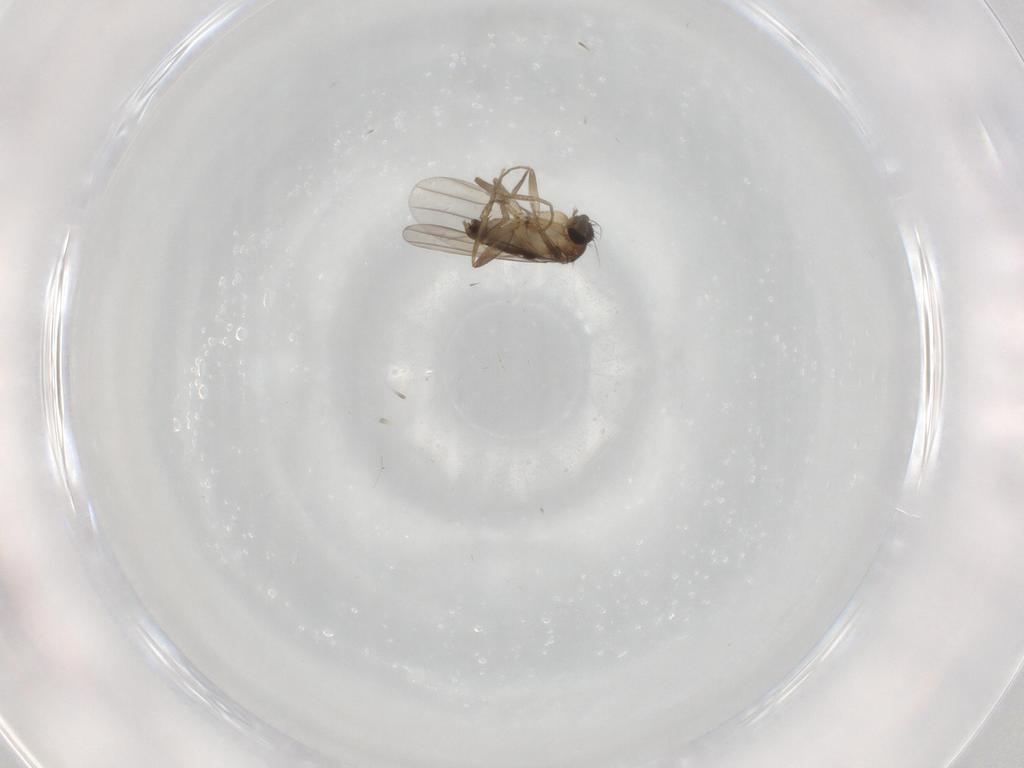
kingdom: Animalia
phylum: Arthropoda
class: Insecta
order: Diptera
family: Phoridae
